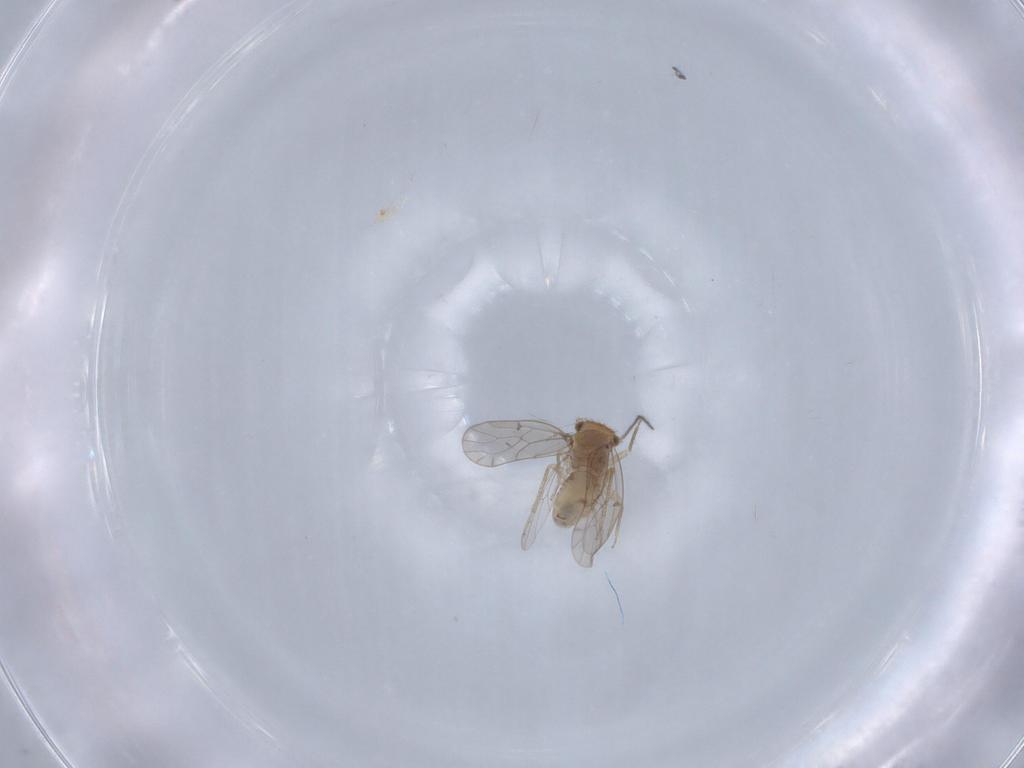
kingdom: Animalia
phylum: Arthropoda
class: Insecta
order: Psocodea
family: Ectopsocidae
